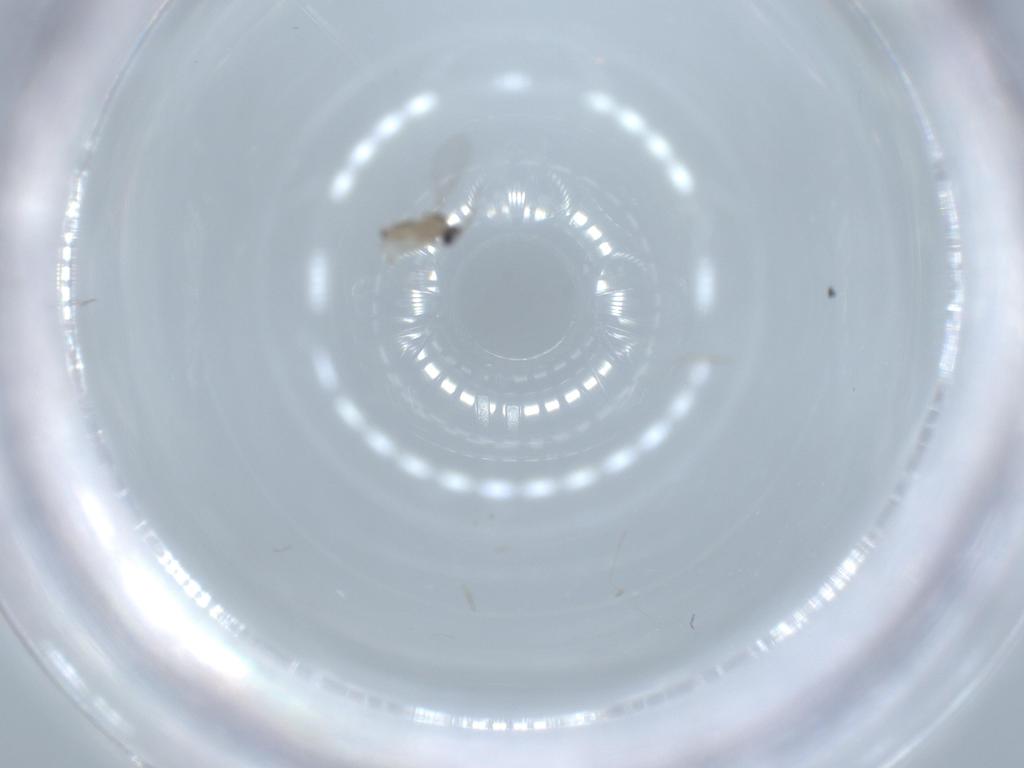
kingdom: Animalia
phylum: Arthropoda
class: Insecta
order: Diptera
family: Cecidomyiidae
